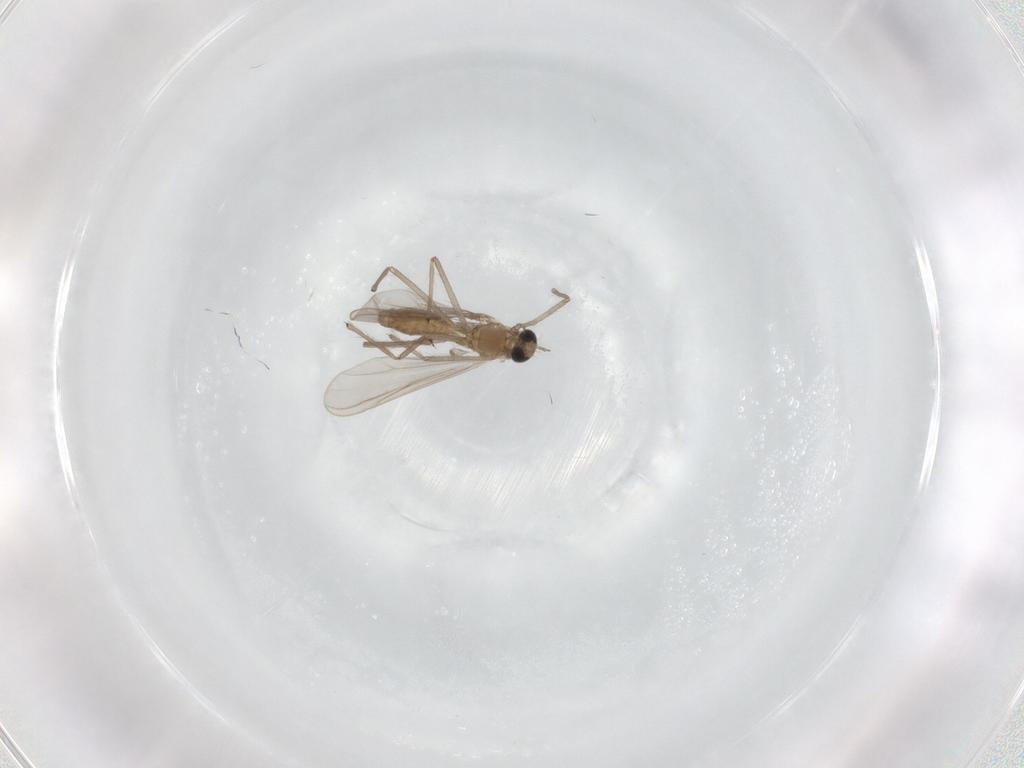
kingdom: Animalia
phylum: Arthropoda
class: Insecta
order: Diptera
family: Chironomidae
